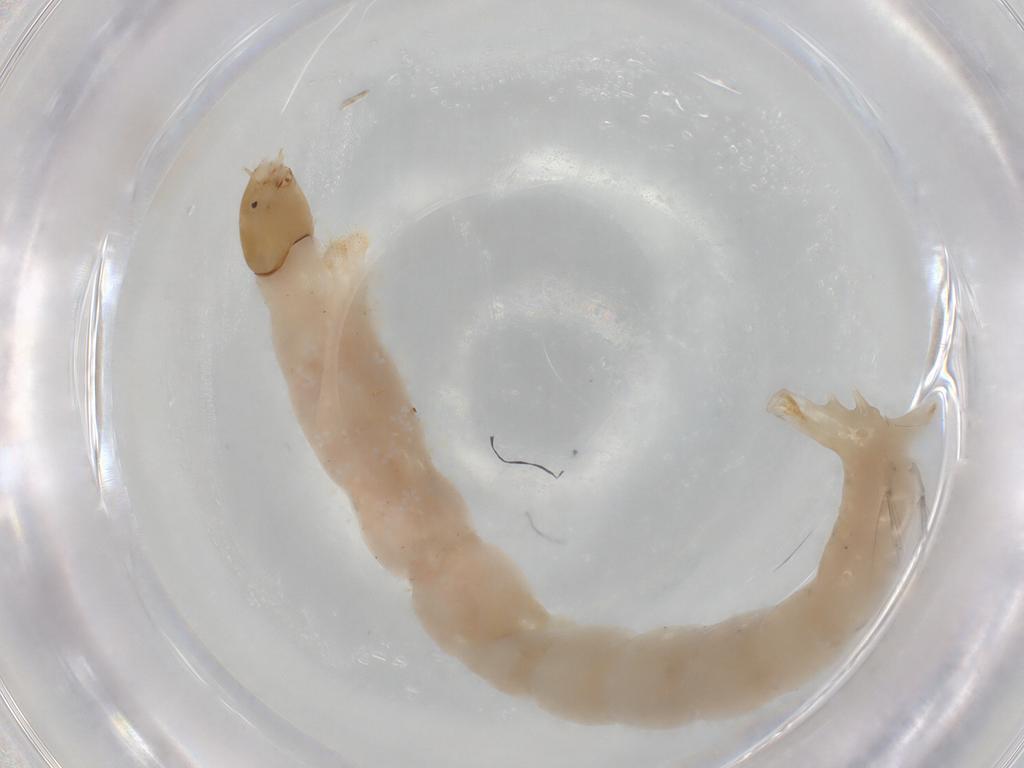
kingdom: Animalia
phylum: Arthropoda
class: Insecta
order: Diptera
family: Chironomidae
